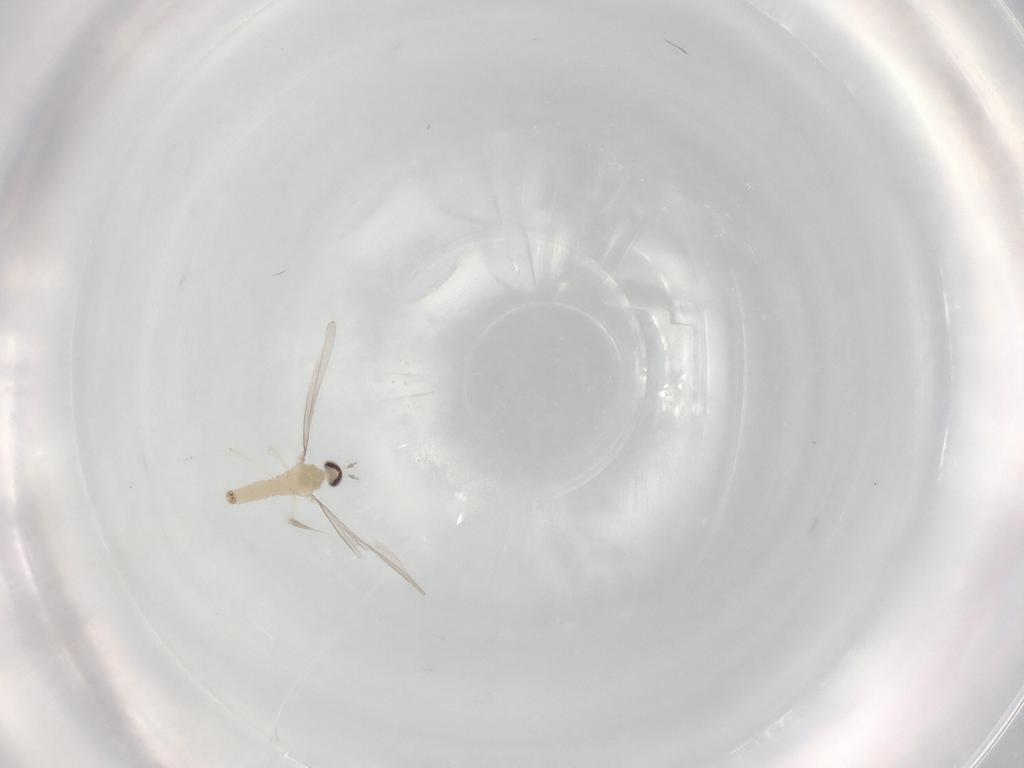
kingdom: Animalia
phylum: Arthropoda
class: Insecta
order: Diptera
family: Cecidomyiidae
